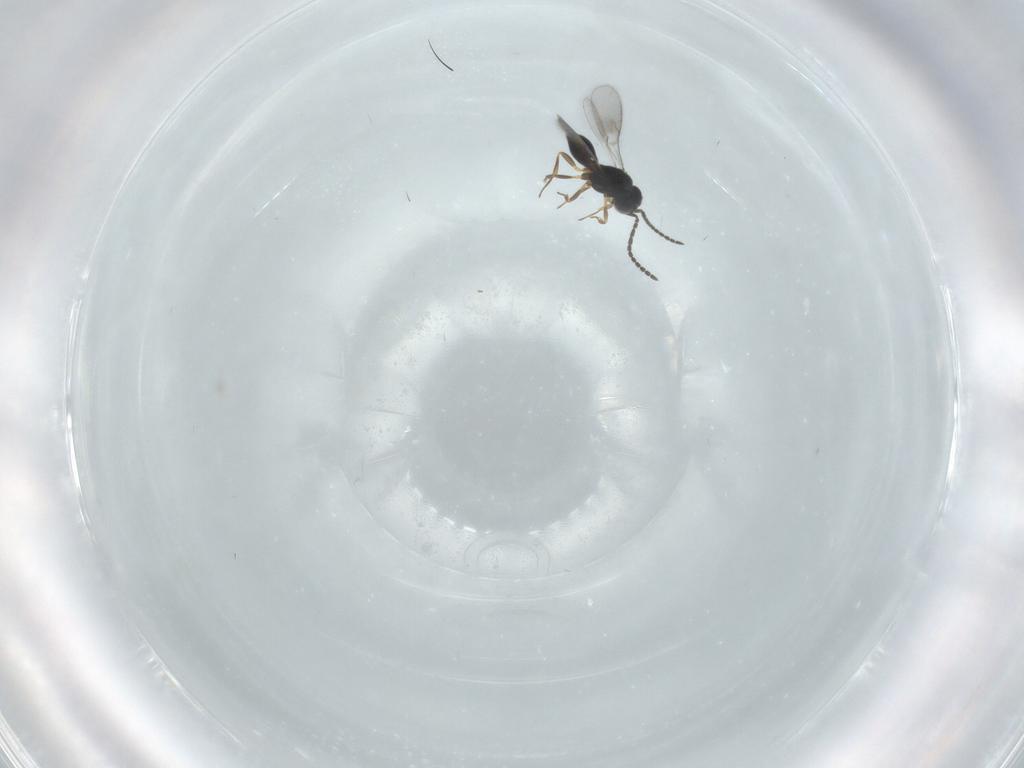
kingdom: Animalia
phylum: Arthropoda
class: Insecta
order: Hymenoptera
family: Scelionidae
